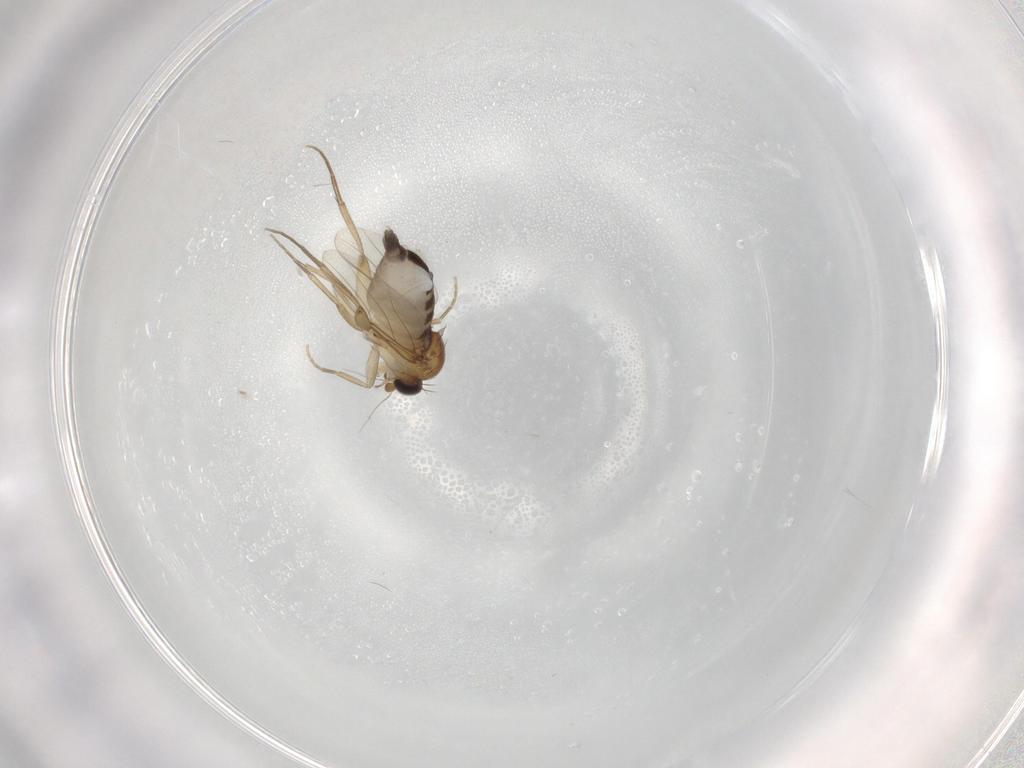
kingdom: Animalia
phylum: Arthropoda
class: Insecta
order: Diptera
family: Phoridae
